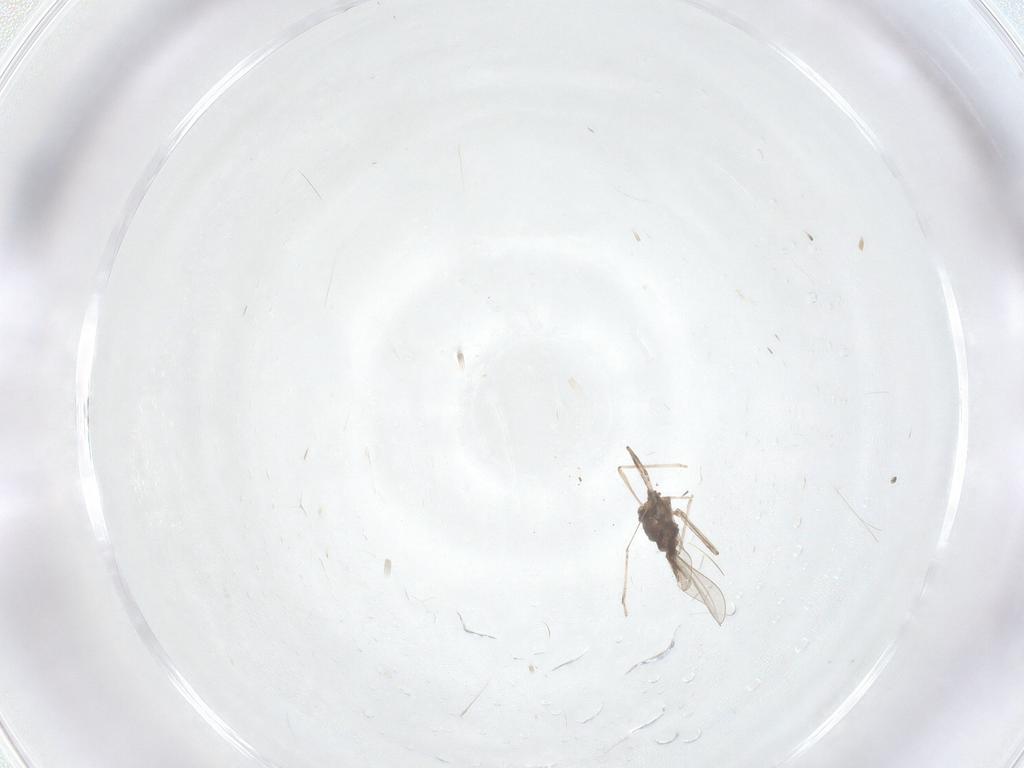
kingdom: Animalia
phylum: Arthropoda
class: Insecta
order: Diptera
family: Cecidomyiidae
